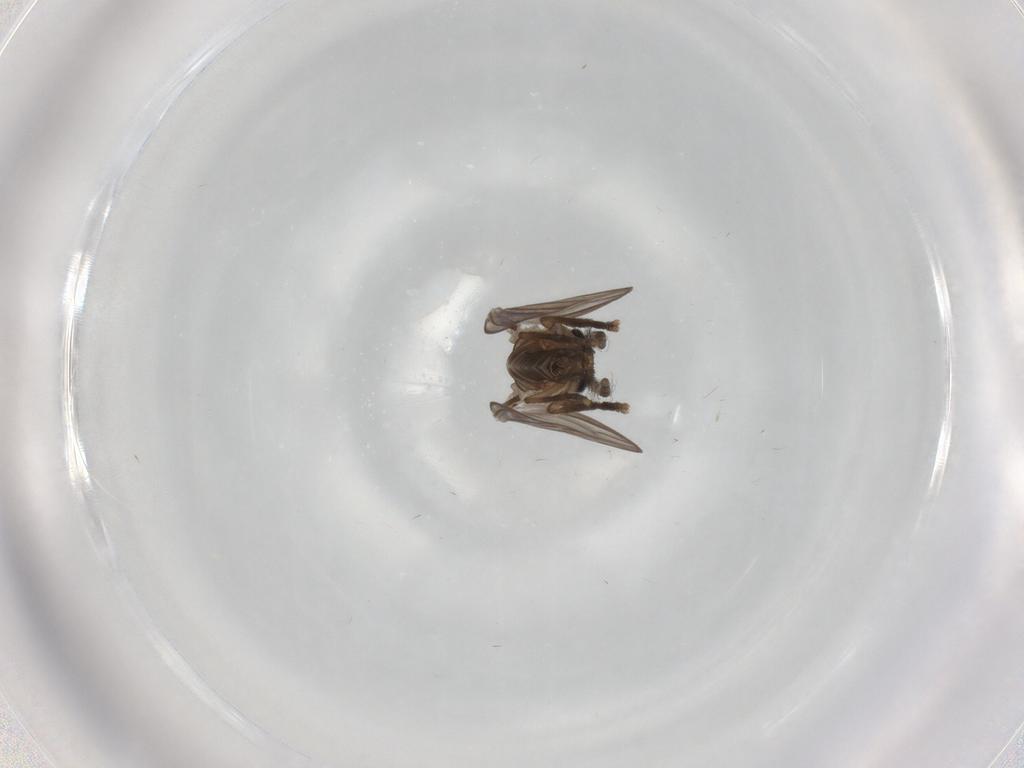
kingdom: Animalia
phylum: Arthropoda
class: Insecta
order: Diptera
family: Psychodidae
